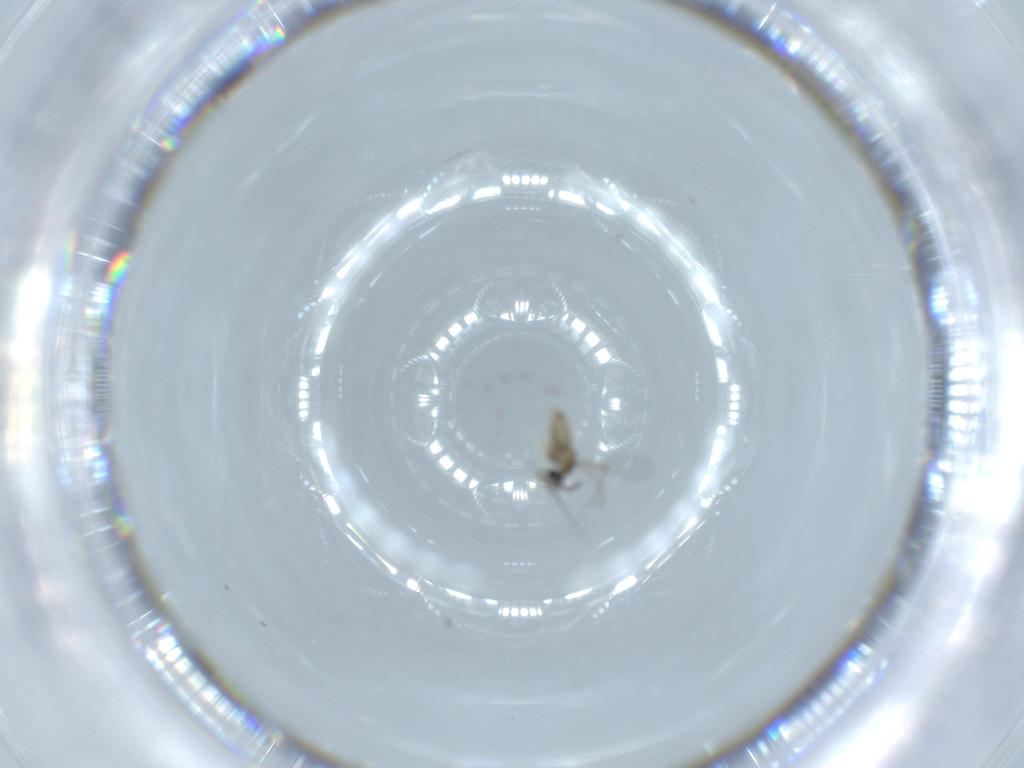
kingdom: Animalia
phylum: Arthropoda
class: Insecta
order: Diptera
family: Cecidomyiidae
